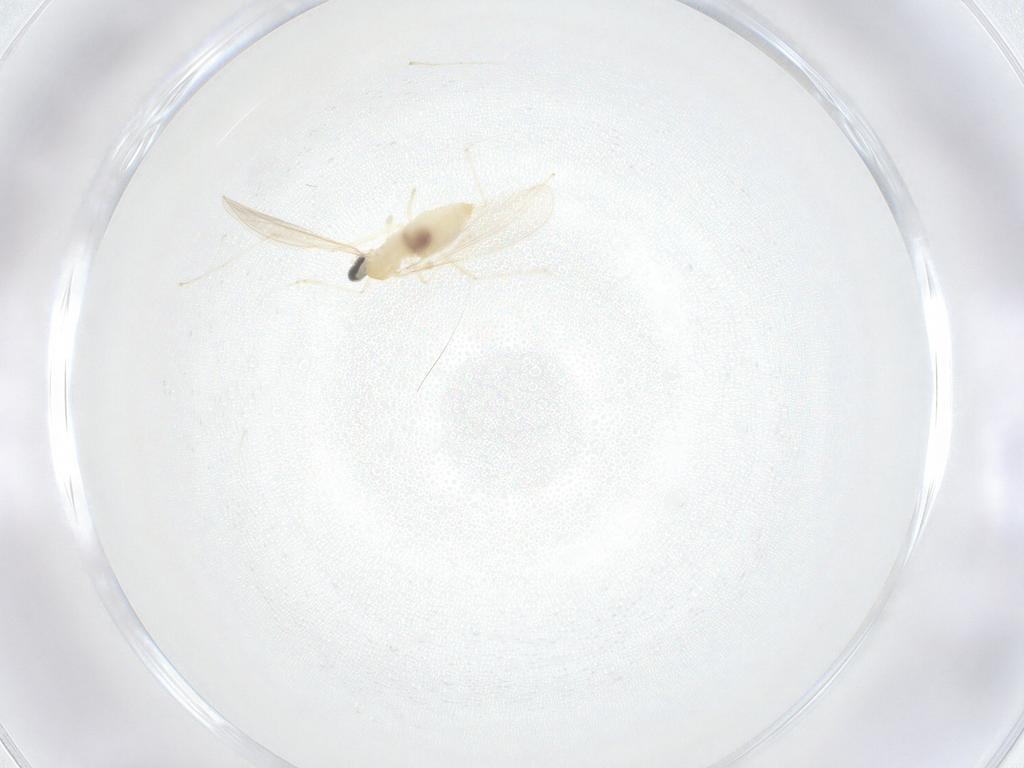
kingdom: Animalia
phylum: Arthropoda
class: Insecta
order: Diptera
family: Cecidomyiidae
